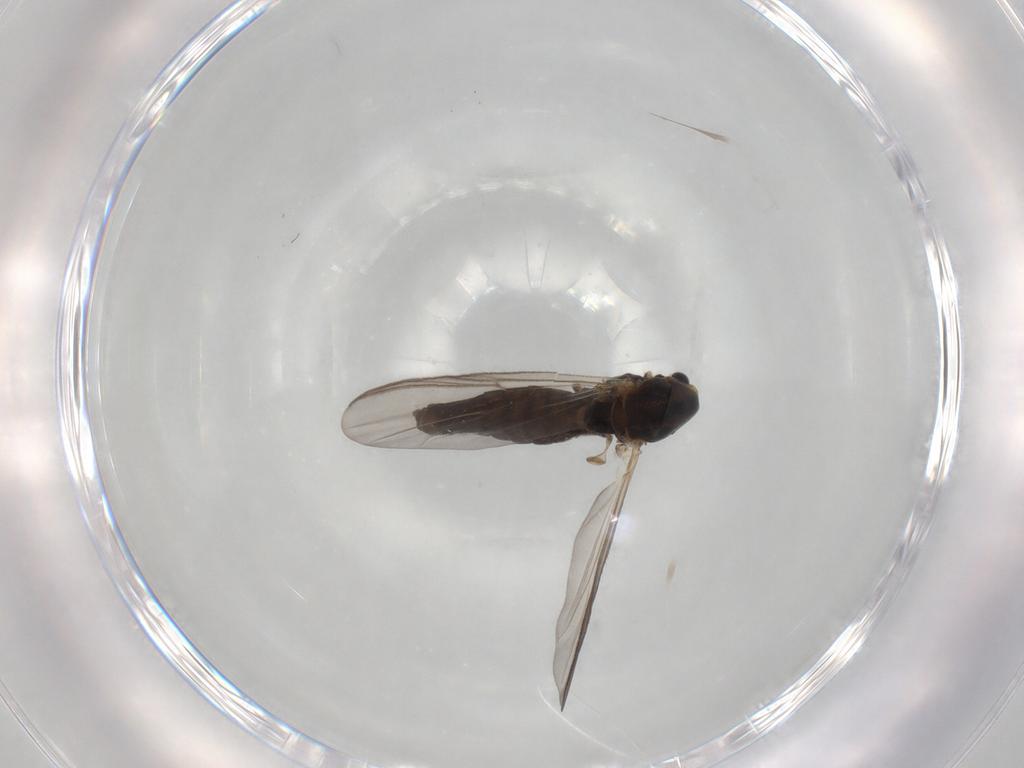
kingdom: Animalia
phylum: Arthropoda
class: Insecta
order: Diptera
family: Chironomidae
